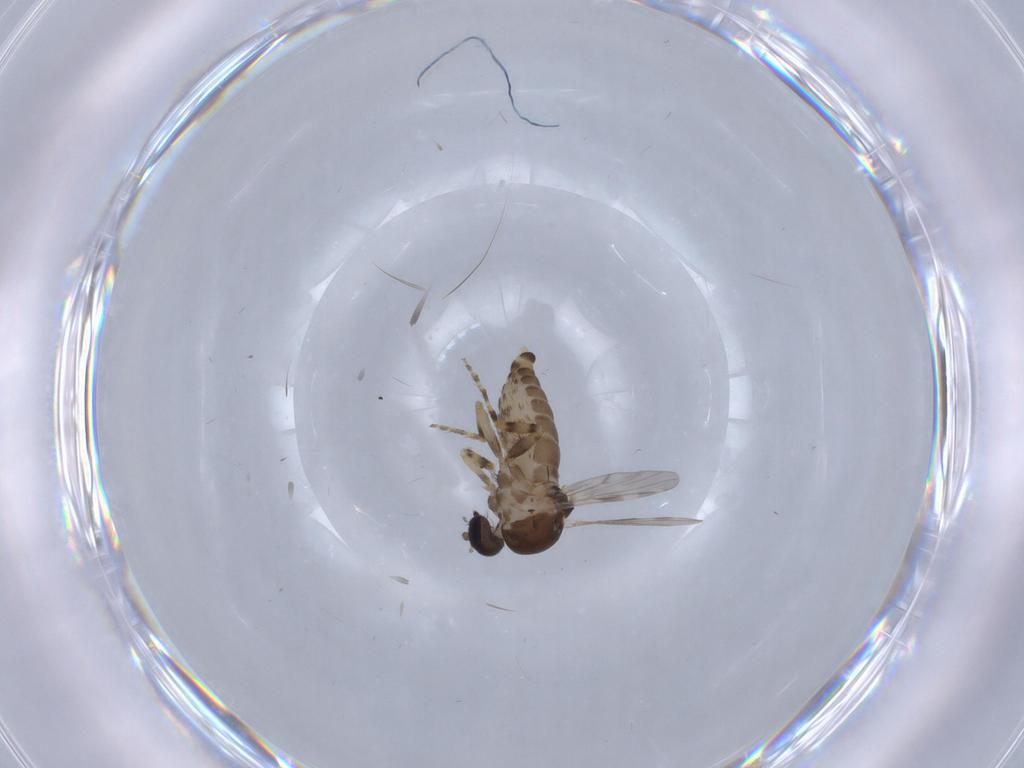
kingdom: Animalia
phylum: Arthropoda
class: Insecta
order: Diptera
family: Ceratopogonidae
